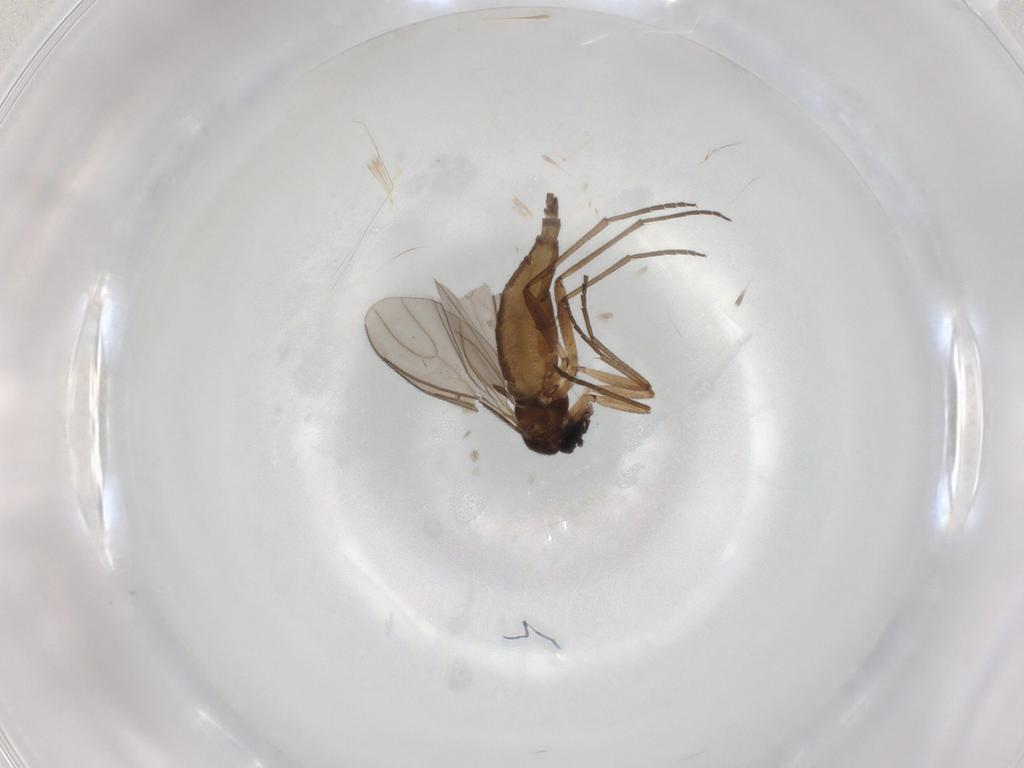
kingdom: Animalia
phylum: Arthropoda
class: Insecta
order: Diptera
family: Sciaridae
